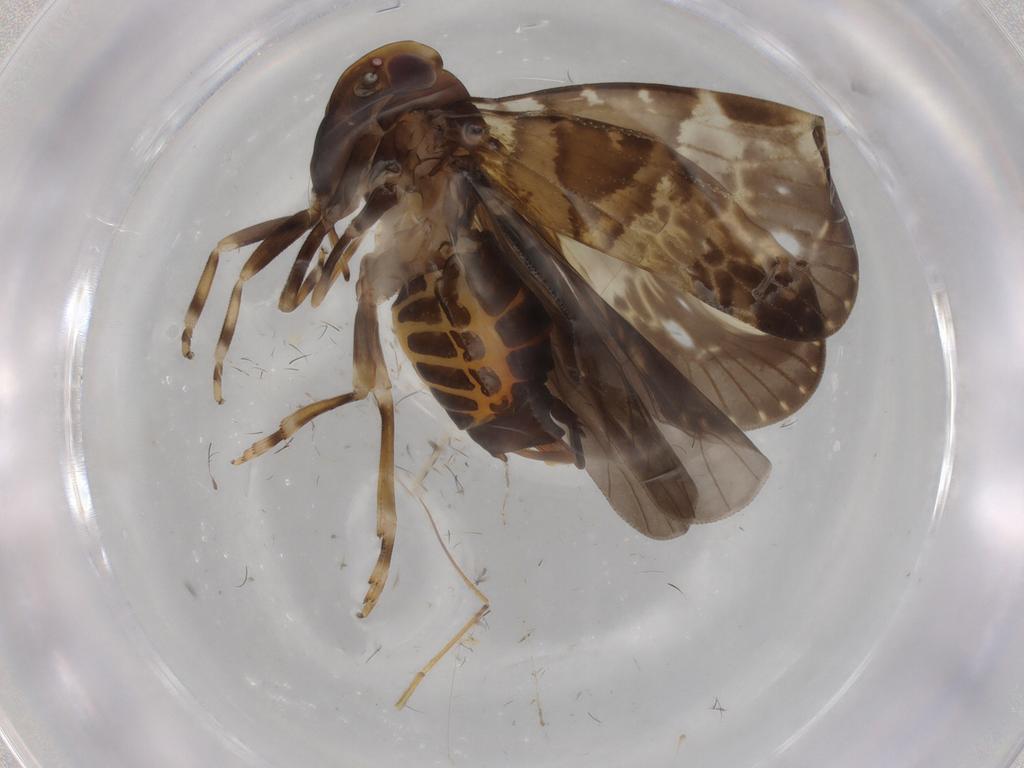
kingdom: Animalia
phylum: Arthropoda
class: Insecta
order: Hemiptera
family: Cixiidae
